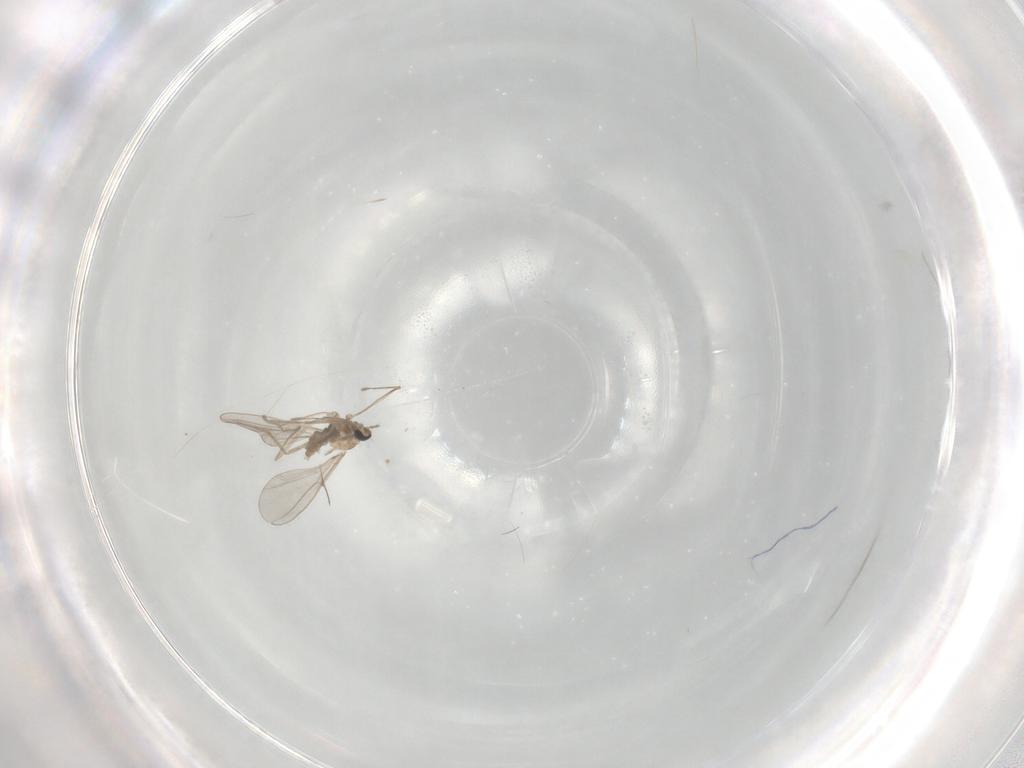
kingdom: Animalia
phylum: Arthropoda
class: Insecta
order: Diptera
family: Cecidomyiidae
